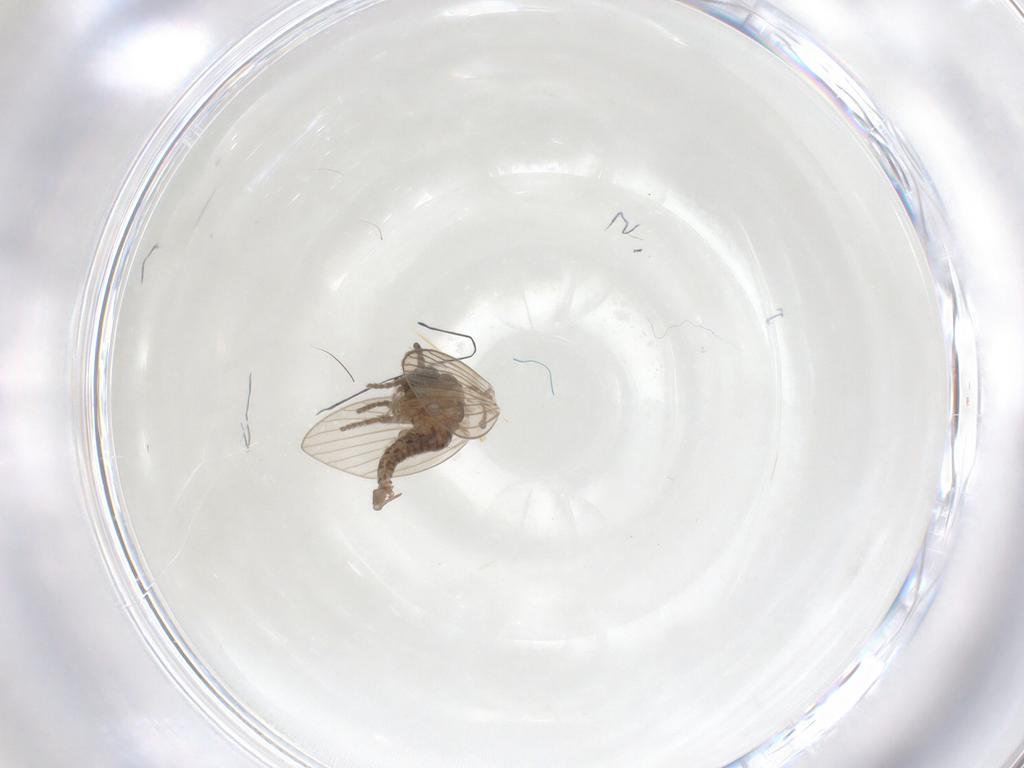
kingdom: Animalia
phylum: Arthropoda
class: Insecta
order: Diptera
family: Psychodidae
